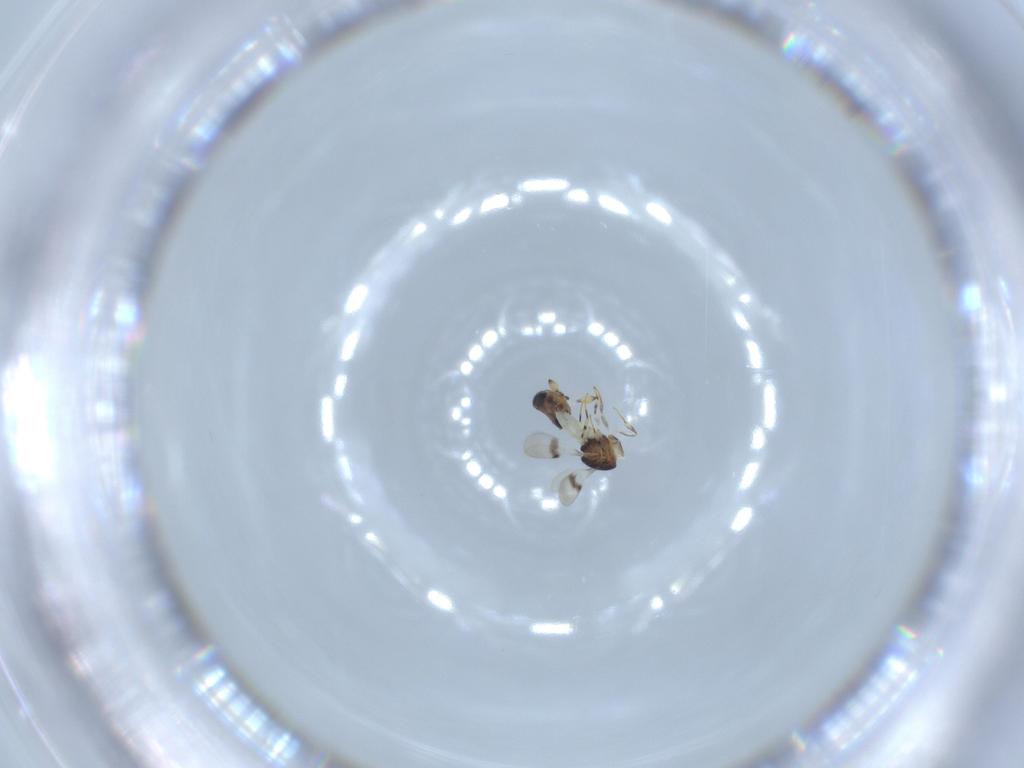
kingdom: Animalia
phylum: Arthropoda
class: Insecta
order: Hymenoptera
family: Scelionidae
